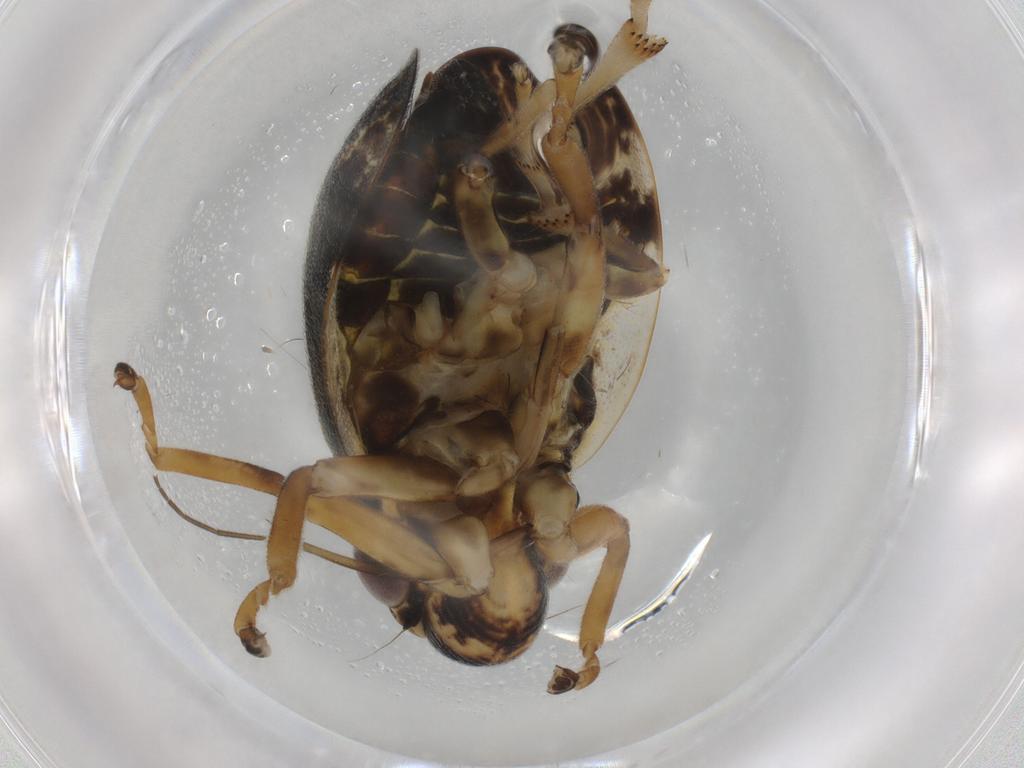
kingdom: Animalia
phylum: Arthropoda
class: Insecta
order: Hemiptera
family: Aphrophoridae
